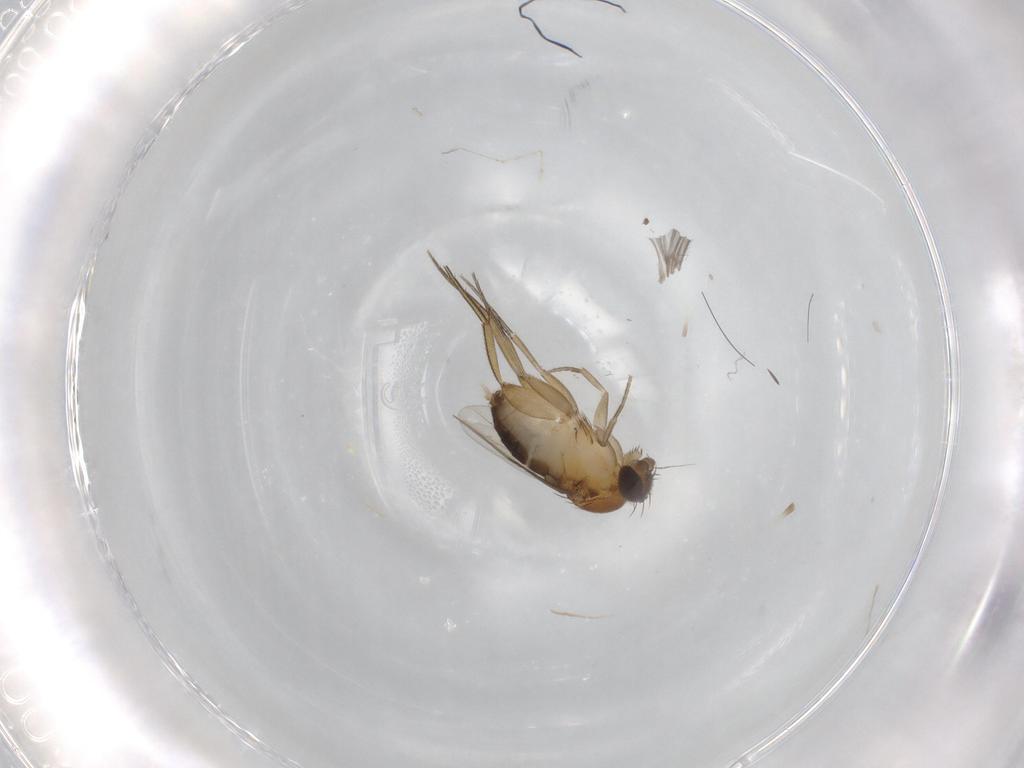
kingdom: Animalia
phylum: Arthropoda
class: Insecta
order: Diptera
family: Phoridae
